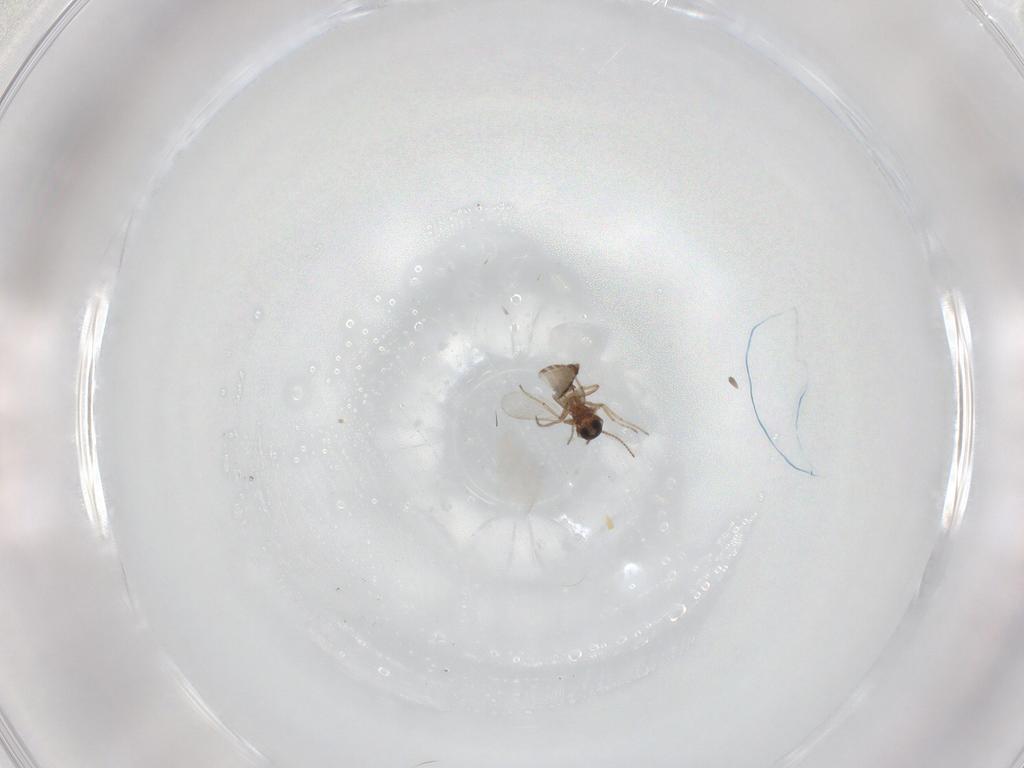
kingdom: Animalia
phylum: Arthropoda
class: Insecta
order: Diptera
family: Ceratopogonidae
